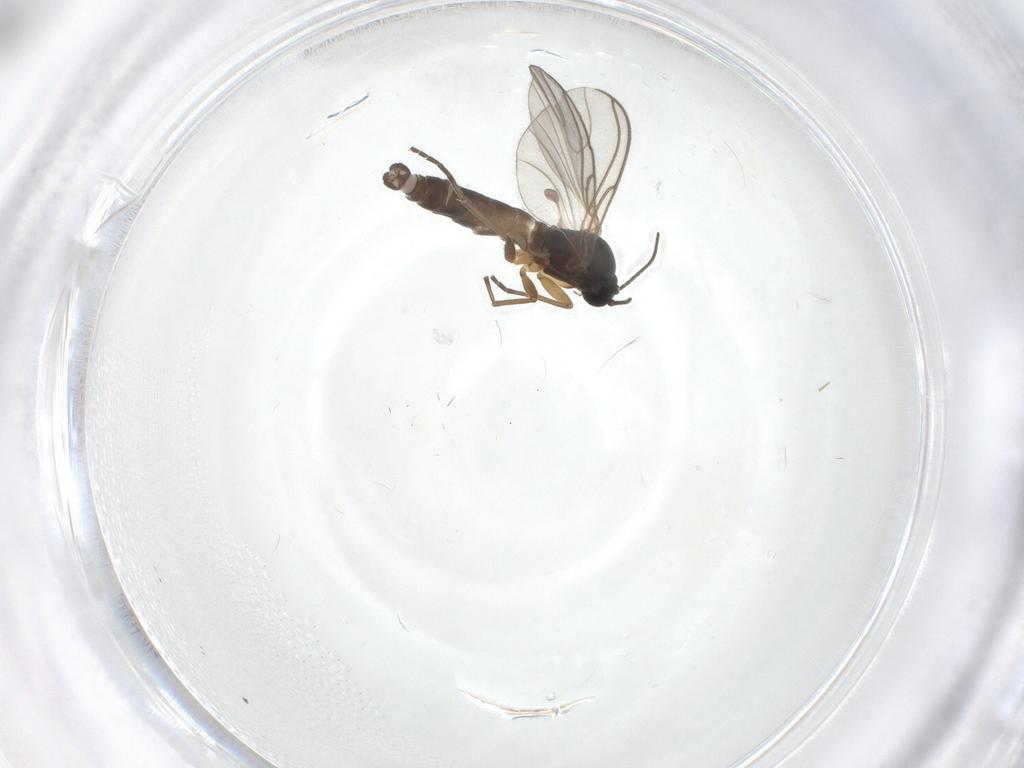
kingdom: Animalia
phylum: Arthropoda
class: Insecta
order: Diptera
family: Sciaridae
